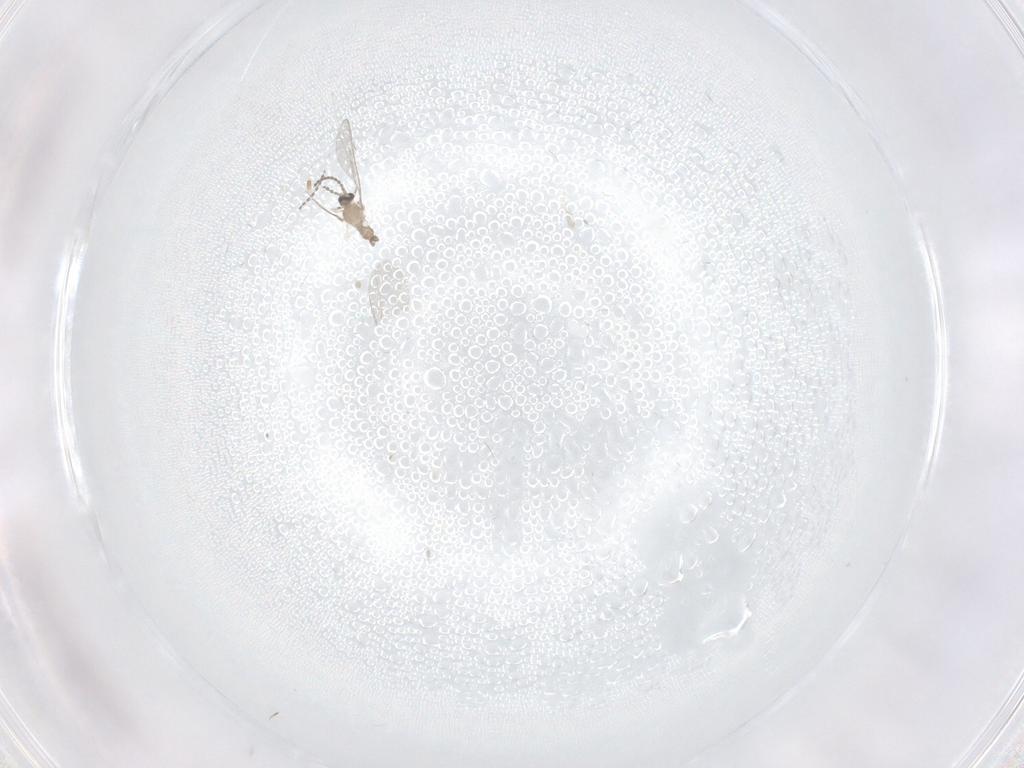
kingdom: Animalia
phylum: Arthropoda
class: Insecta
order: Diptera
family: Cecidomyiidae
